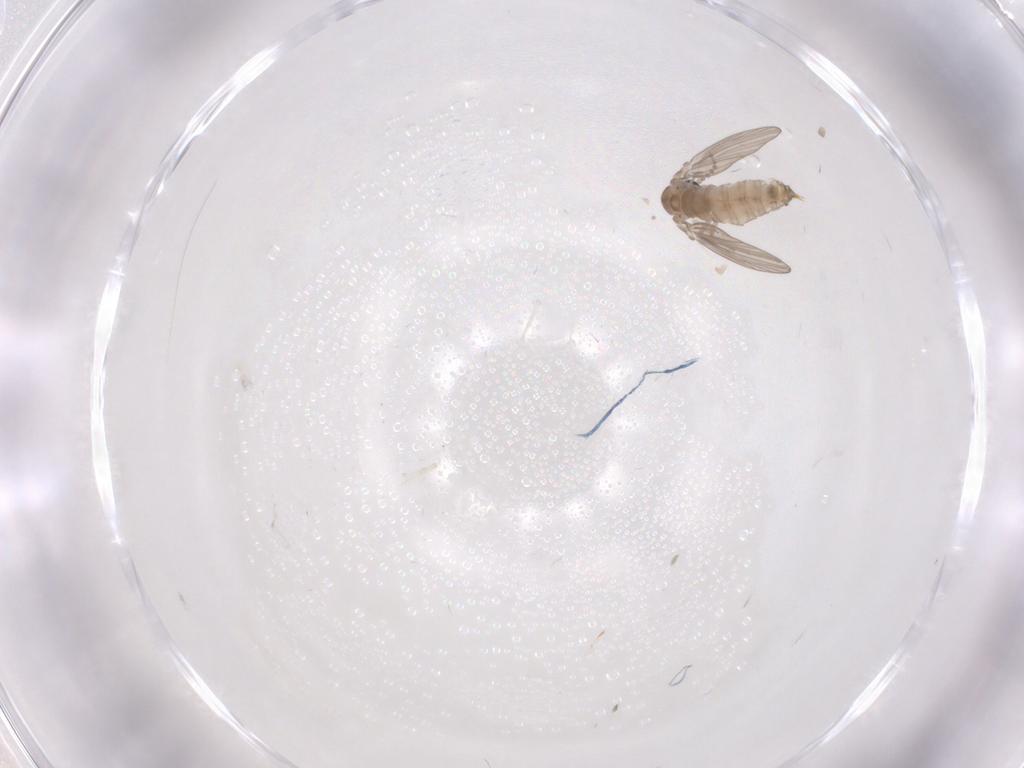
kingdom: Animalia
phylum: Arthropoda
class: Insecta
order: Diptera
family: Psychodidae
